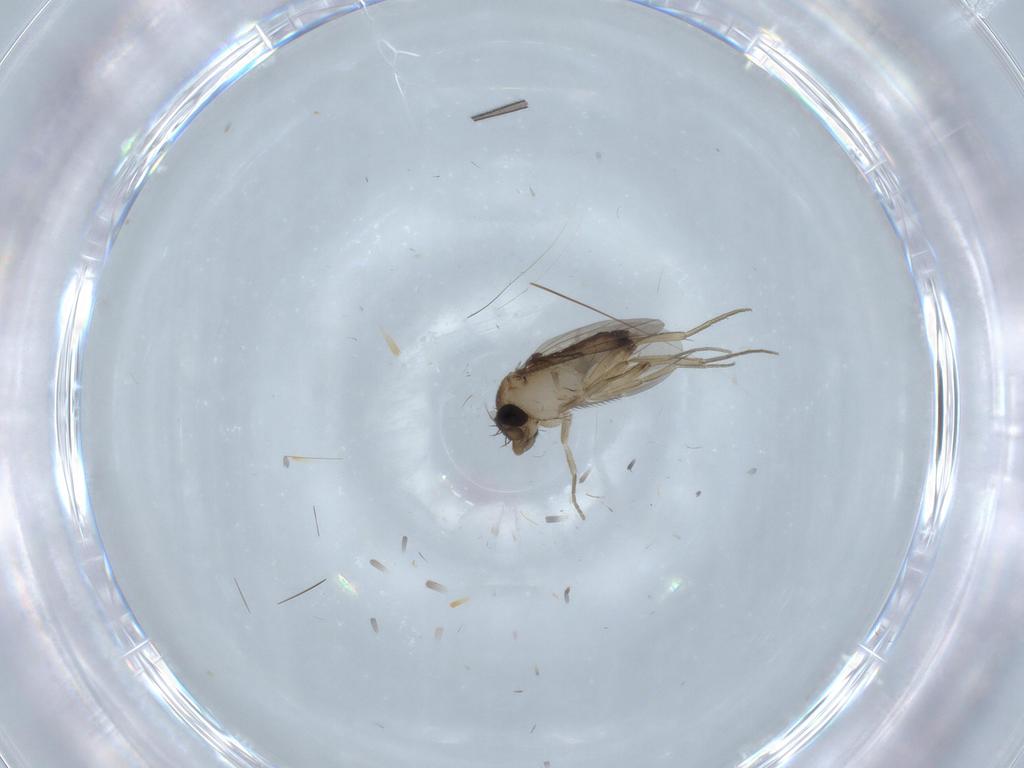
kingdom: Animalia
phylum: Arthropoda
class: Insecta
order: Diptera
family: Phoridae
